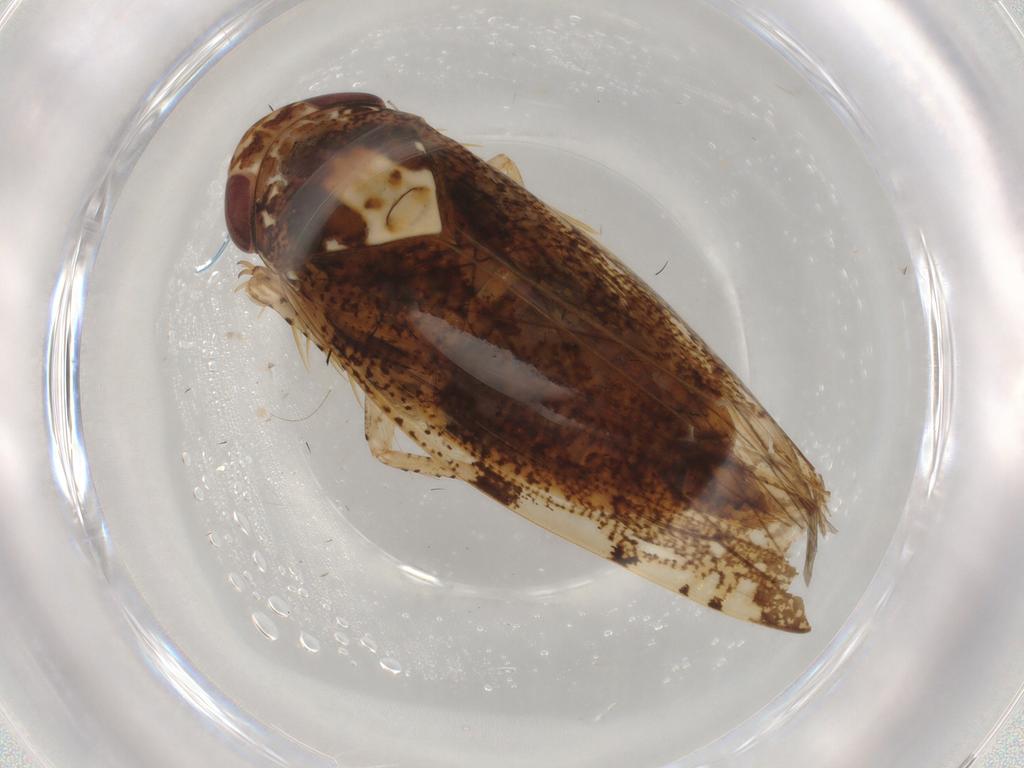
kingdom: Animalia
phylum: Arthropoda
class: Insecta
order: Hemiptera
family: Cicadellidae
